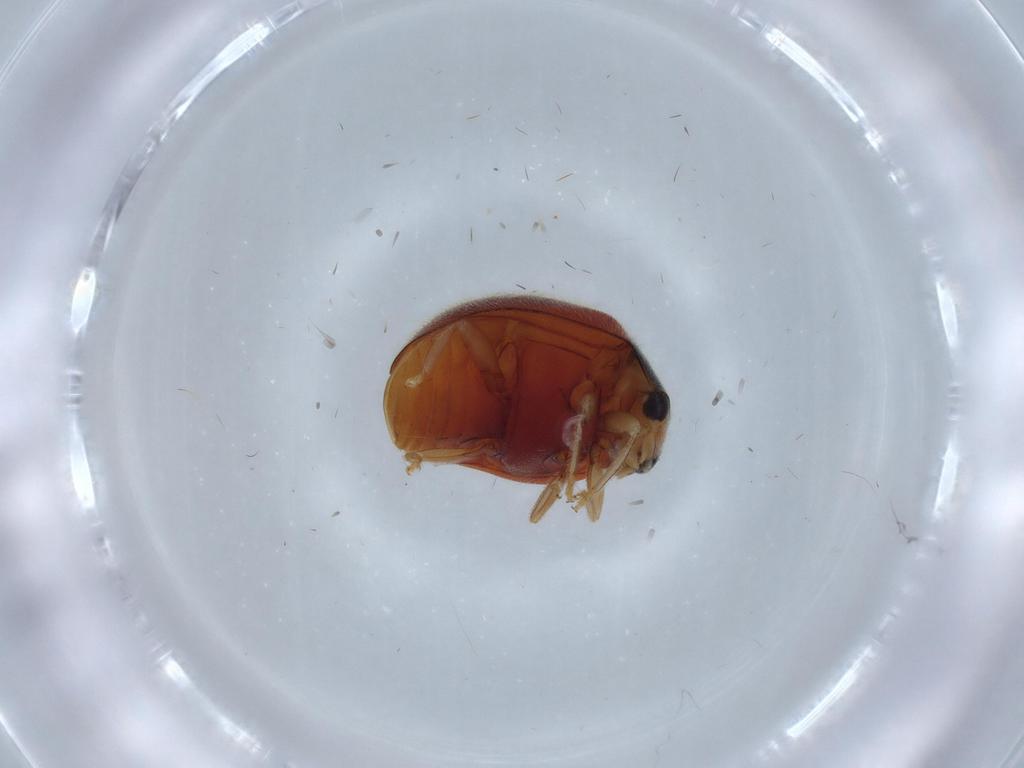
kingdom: Animalia
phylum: Arthropoda
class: Insecta
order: Coleoptera
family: Coccinellidae
